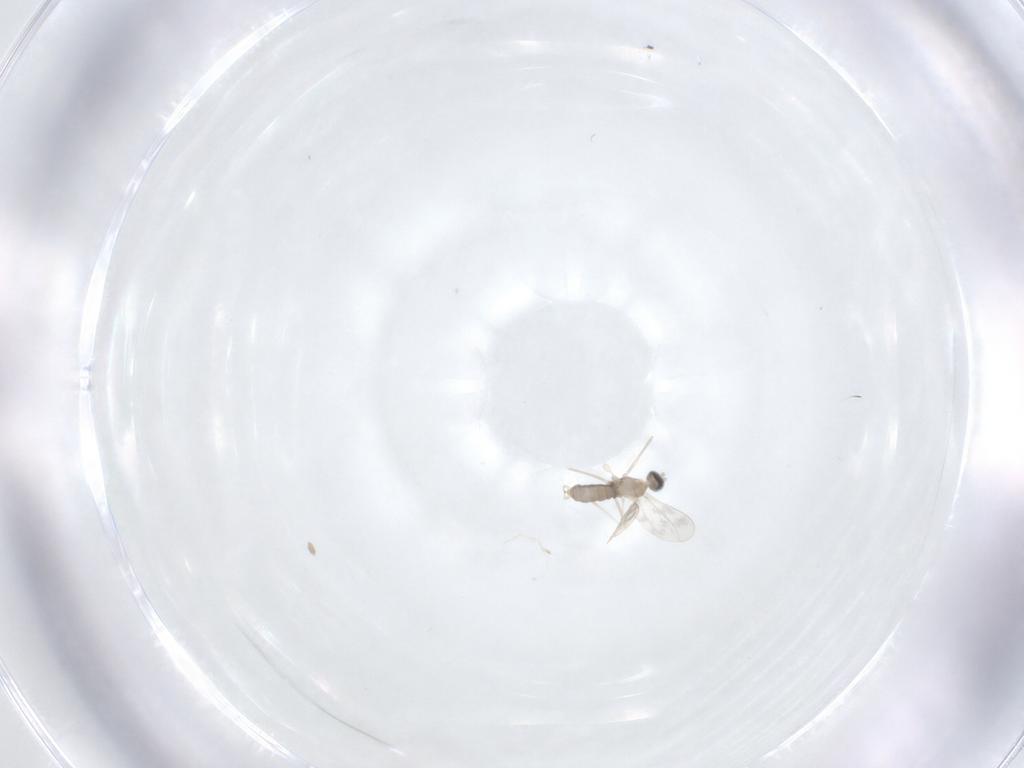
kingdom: Animalia
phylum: Arthropoda
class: Insecta
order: Diptera
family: Cecidomyiidae
